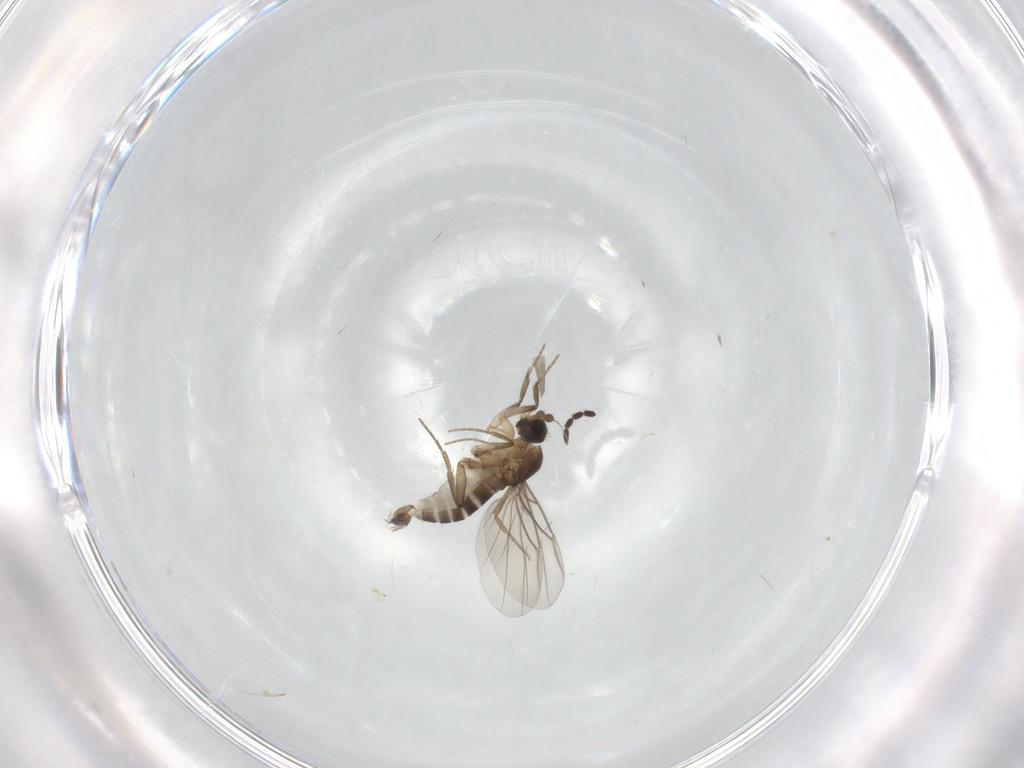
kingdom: Animalia
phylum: Arthropoda
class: Insecta
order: Diptera
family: Phoridae
